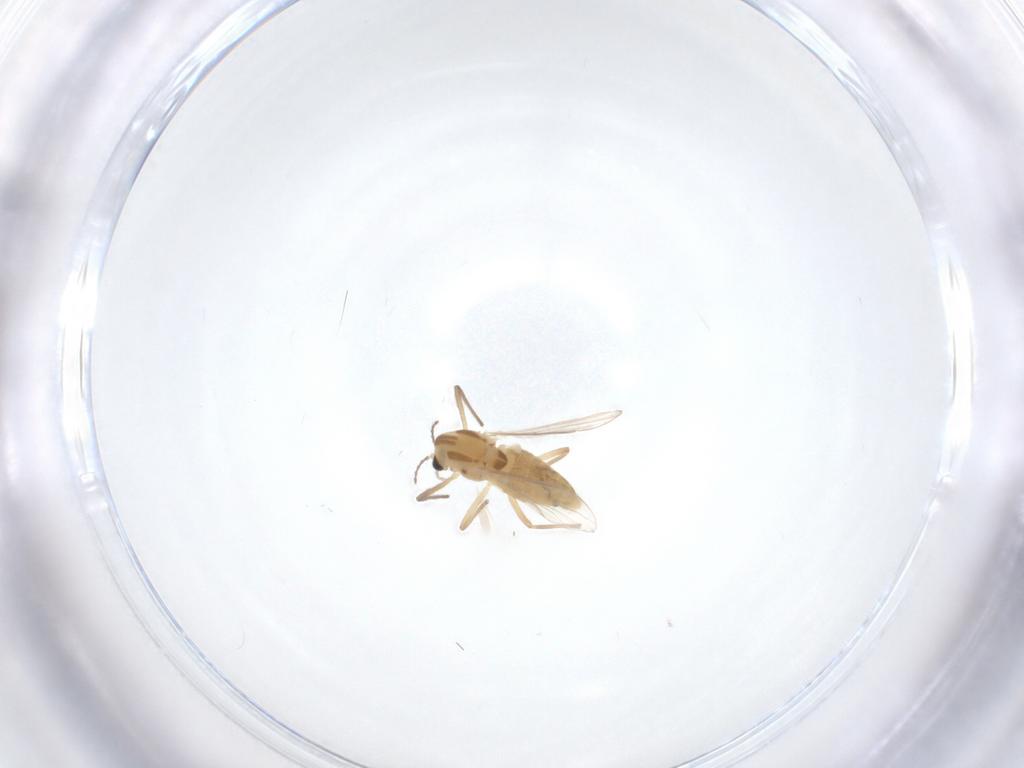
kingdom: Animalia
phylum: Arthropoda
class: Insecta
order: Diptera
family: Chironomidae
